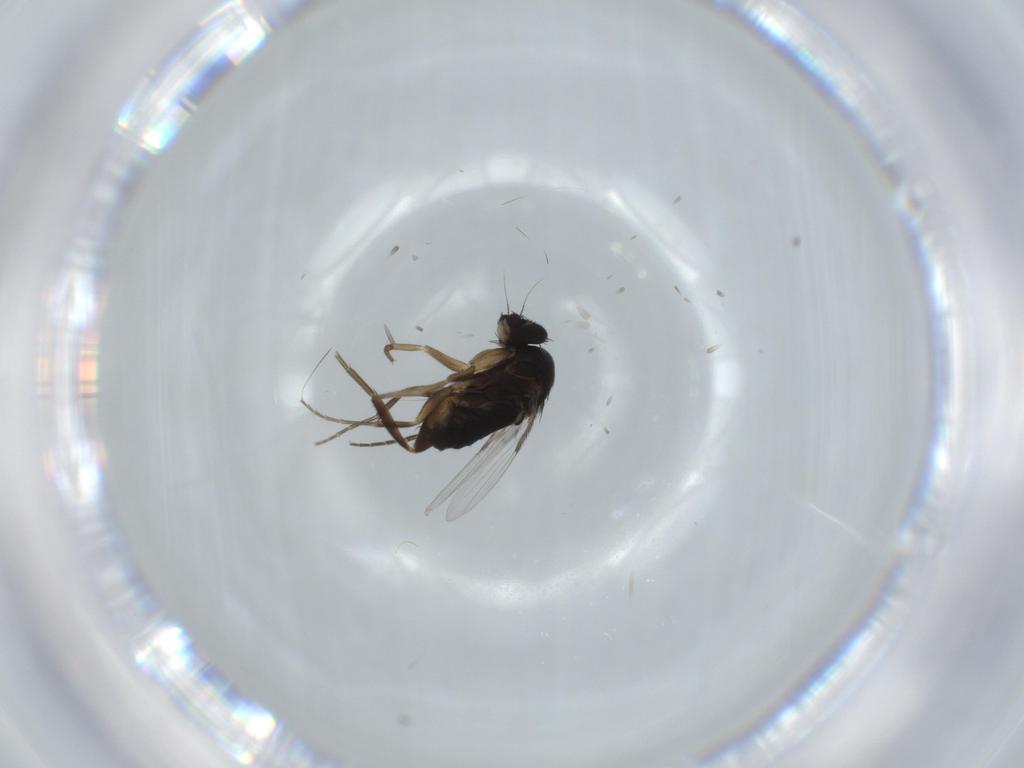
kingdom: Animalia
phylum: Arthropoda
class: Insecta
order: Diptera
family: Phoridae
